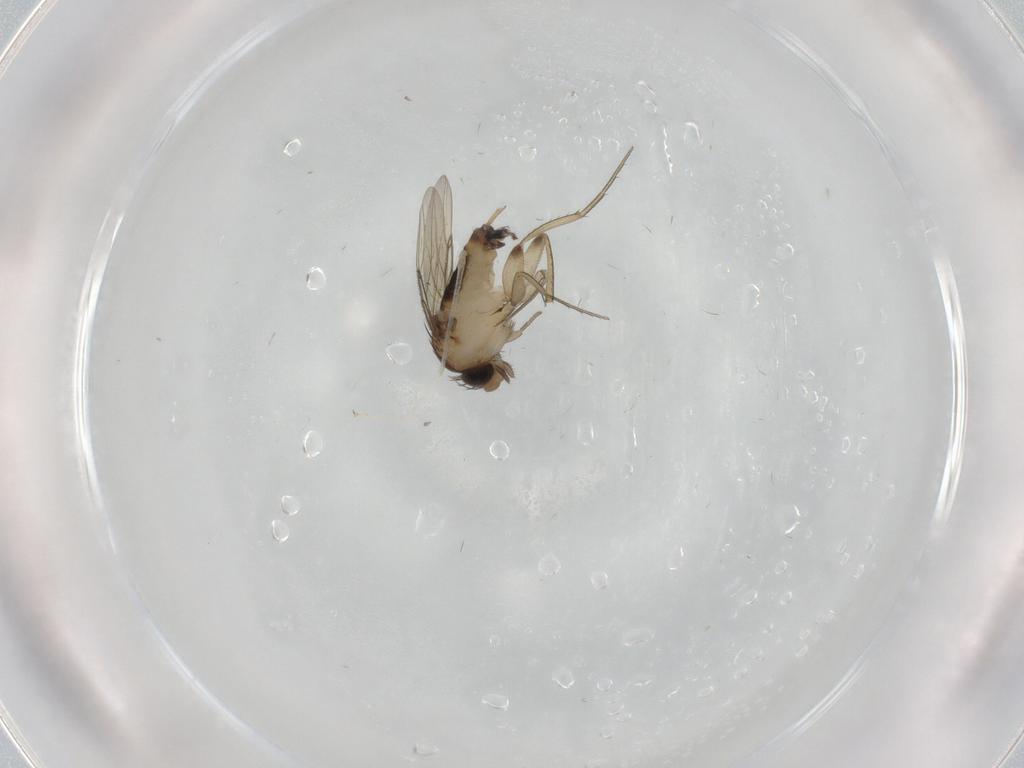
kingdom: Animalia
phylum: Arthropoda
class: Insecta
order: Diptera
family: Phoridae
